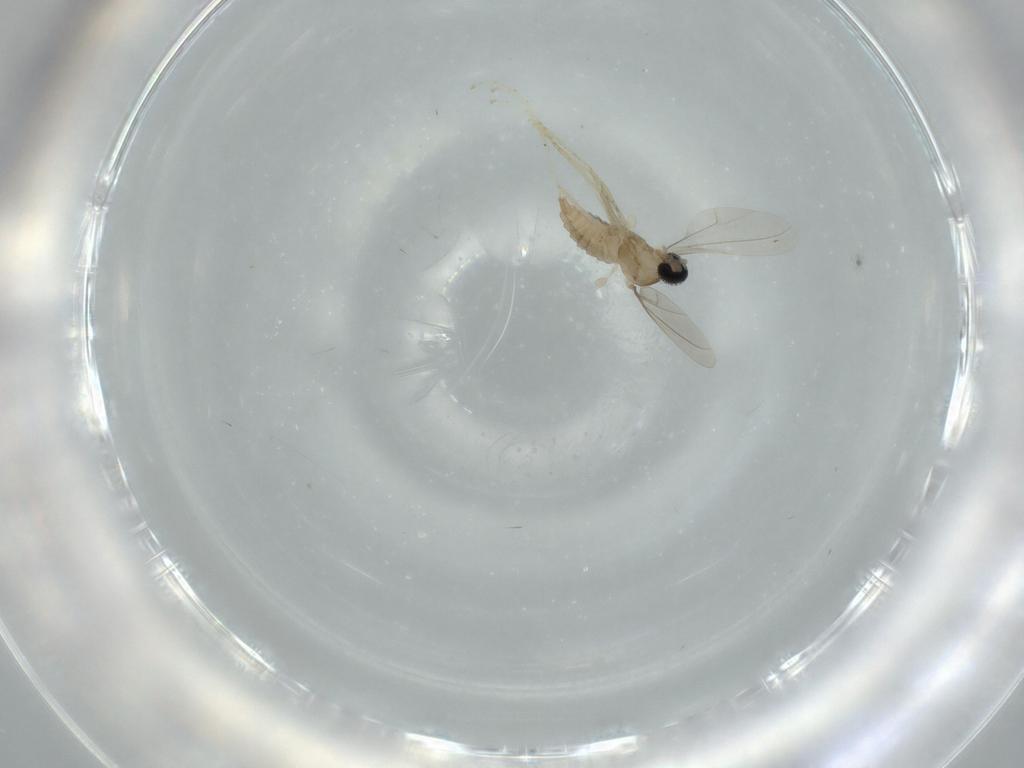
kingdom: Animalia
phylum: Arthropoda
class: Insecta
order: Diptera
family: Cecidomyiidae
